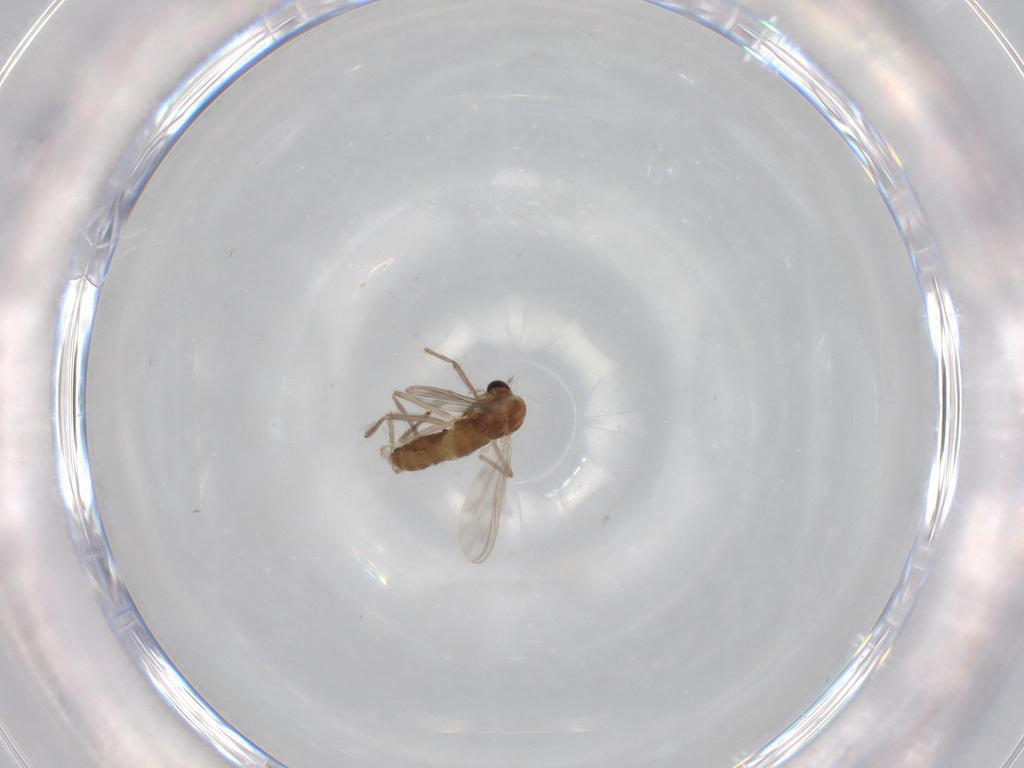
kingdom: Animalia
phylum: Arthropoda
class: Insecta
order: Diptera
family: Chironomidae
